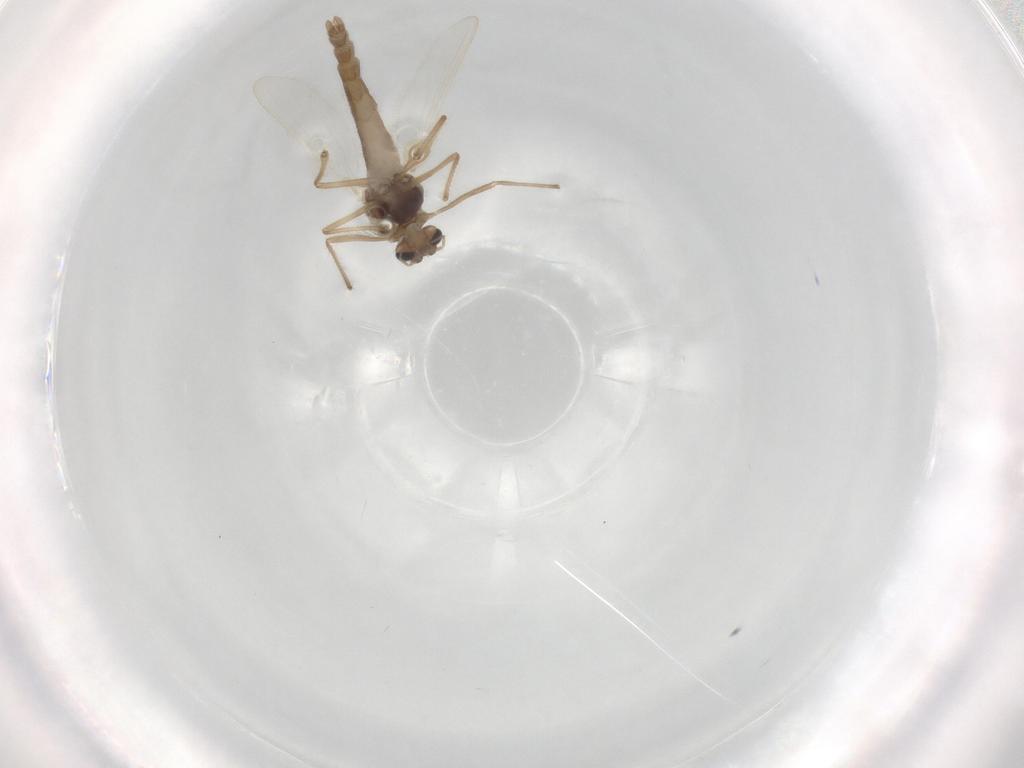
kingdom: Animalia
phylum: Arthropoda
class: Insecta
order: Diptera
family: Chironomidae
